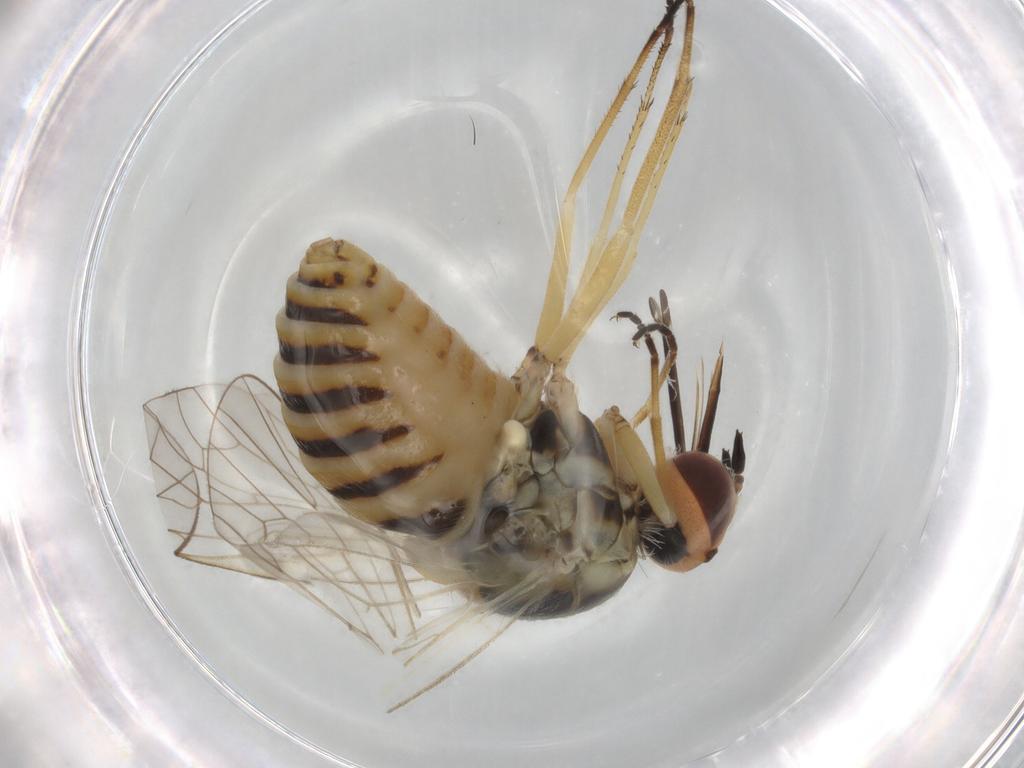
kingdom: Animalia
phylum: Arthropoda
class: Insecta
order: Diptera
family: Bombyliidae
